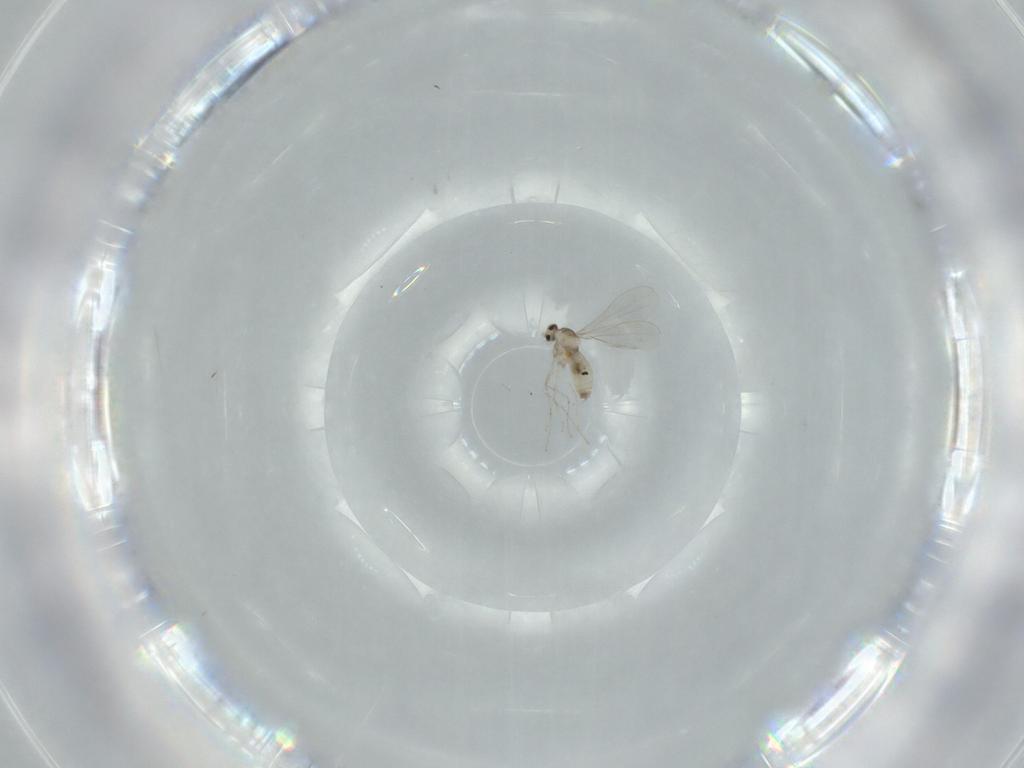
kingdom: Animalia
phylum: Arthropoda
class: Insecta
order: Diptera
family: Cecidomyiidae
